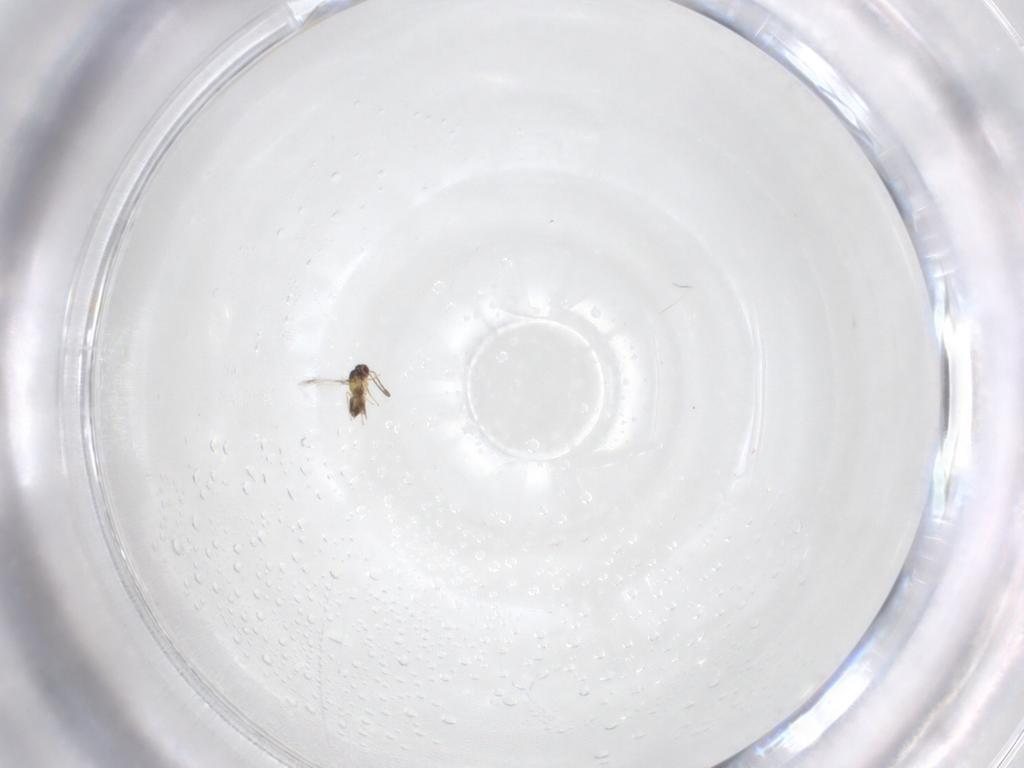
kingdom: Animalia
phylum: Arthropoda
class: Insecta
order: Hymenoptera
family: Mymaridae
